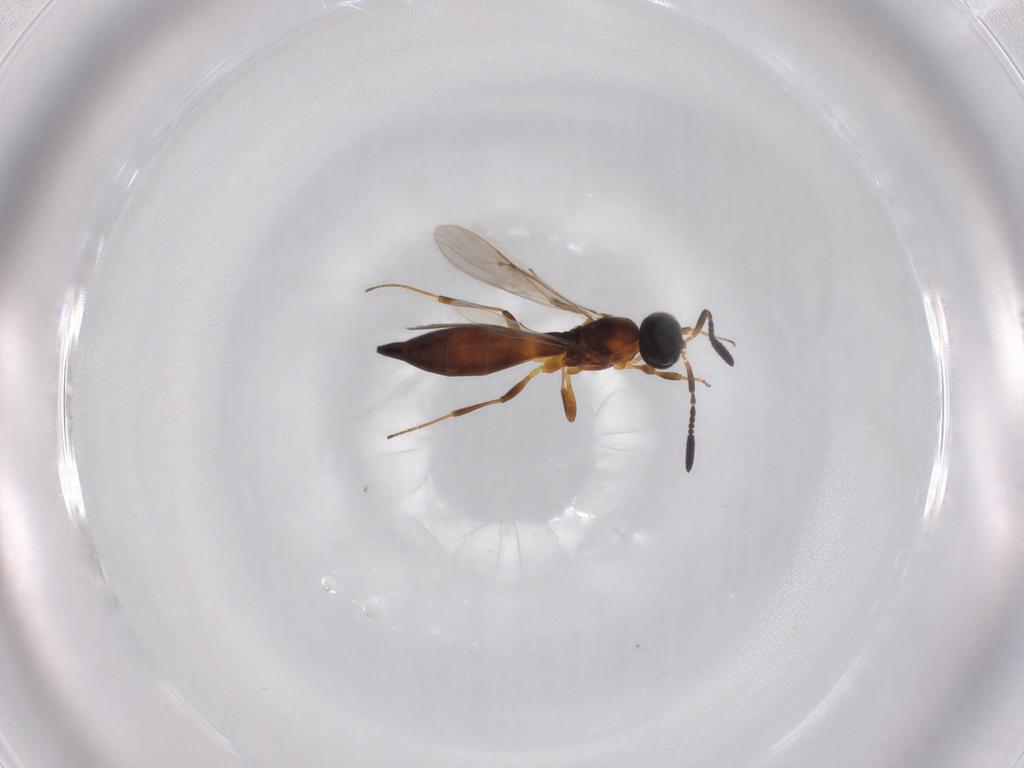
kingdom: Animalia
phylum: Arthropoda
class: Insecta
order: Hymenoptera
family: Scelionidae
